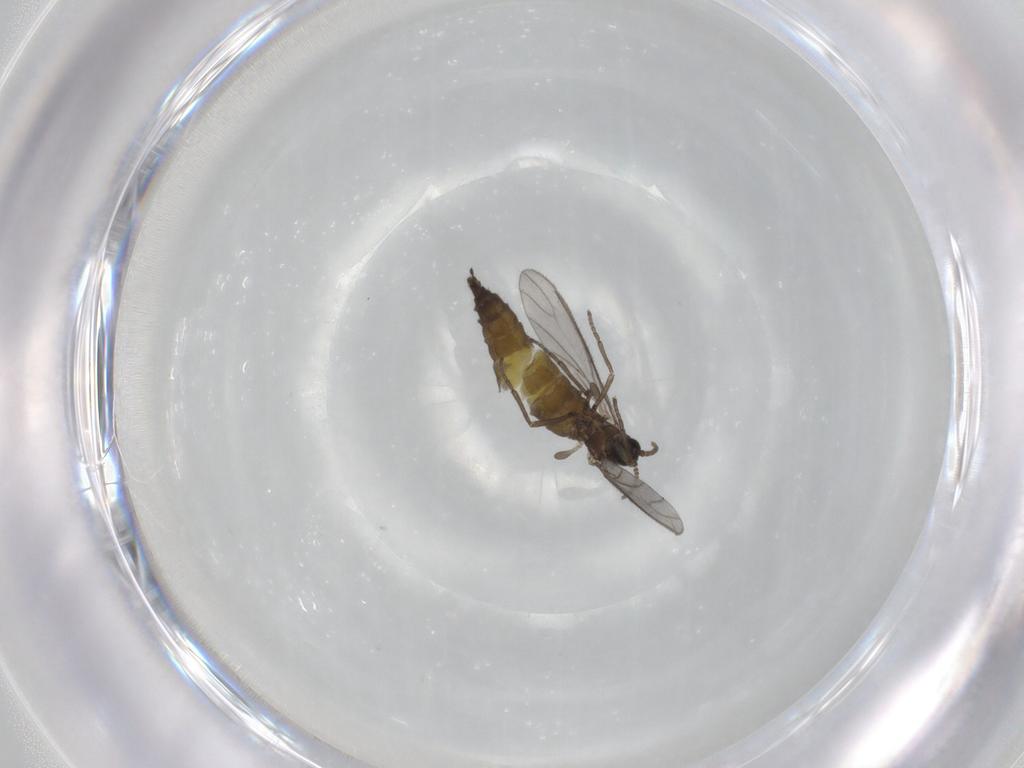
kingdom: Animalia
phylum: Arthropoda
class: Insecta
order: Diptera
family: Sciaridae
